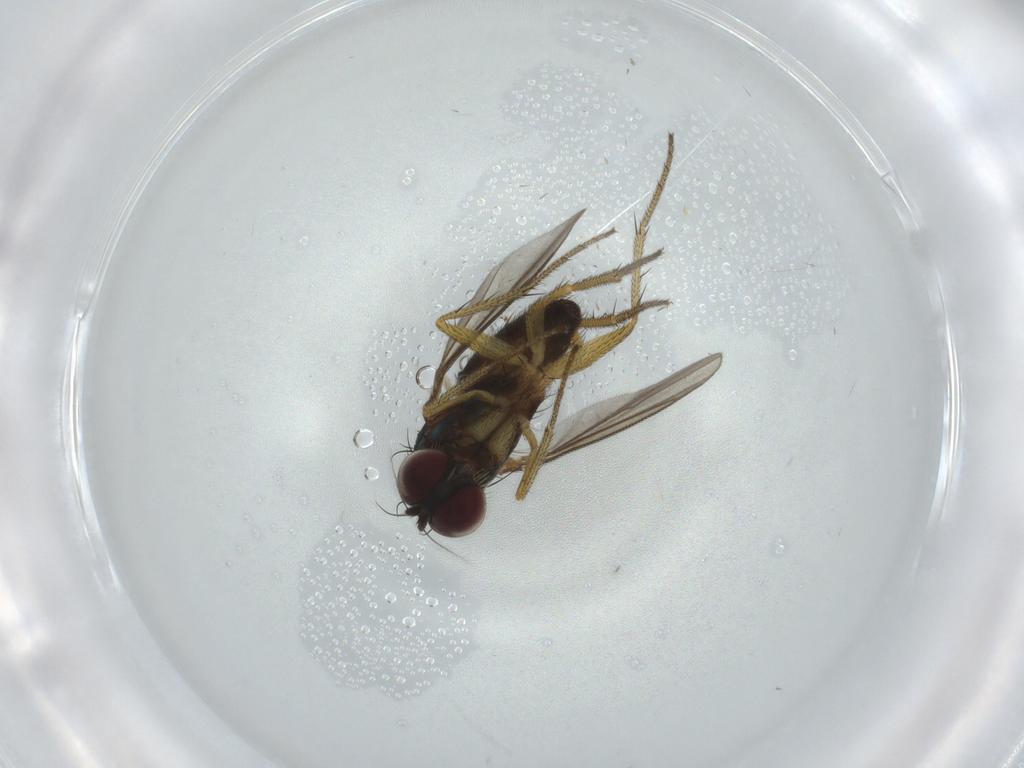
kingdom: Animalia
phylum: Arthropoda
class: Insecta
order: Diptera
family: Dolichopodidae
